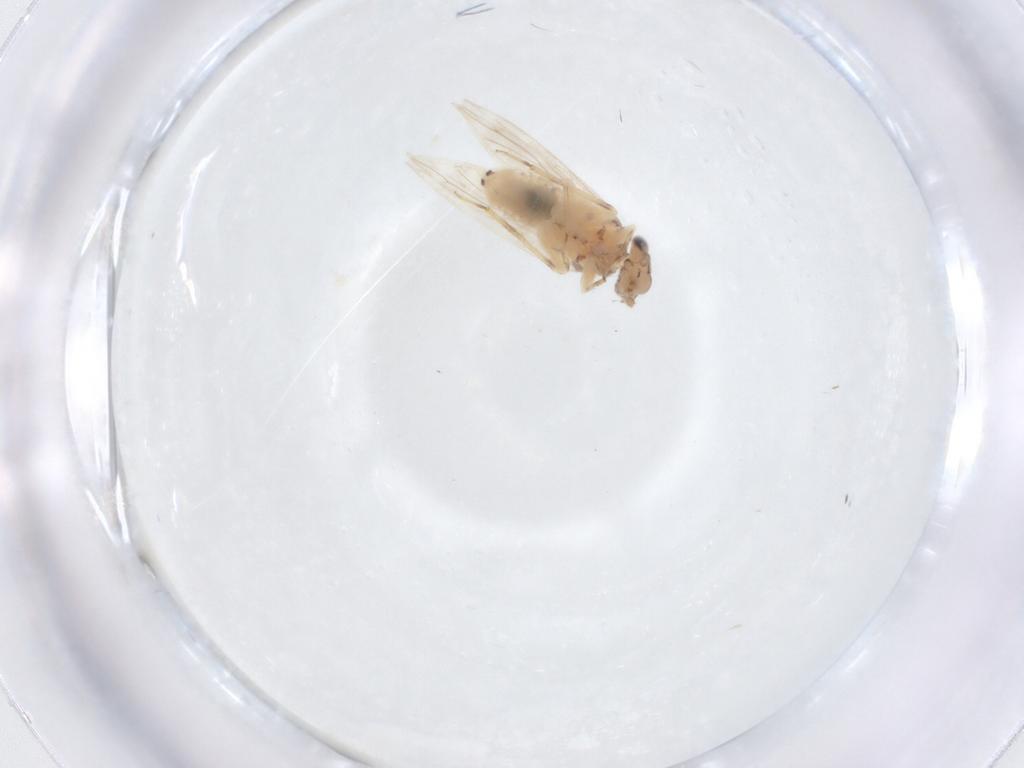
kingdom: Animalia
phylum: Arthropoda
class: Insecta
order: Psocodea
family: Lepidopsocidae
